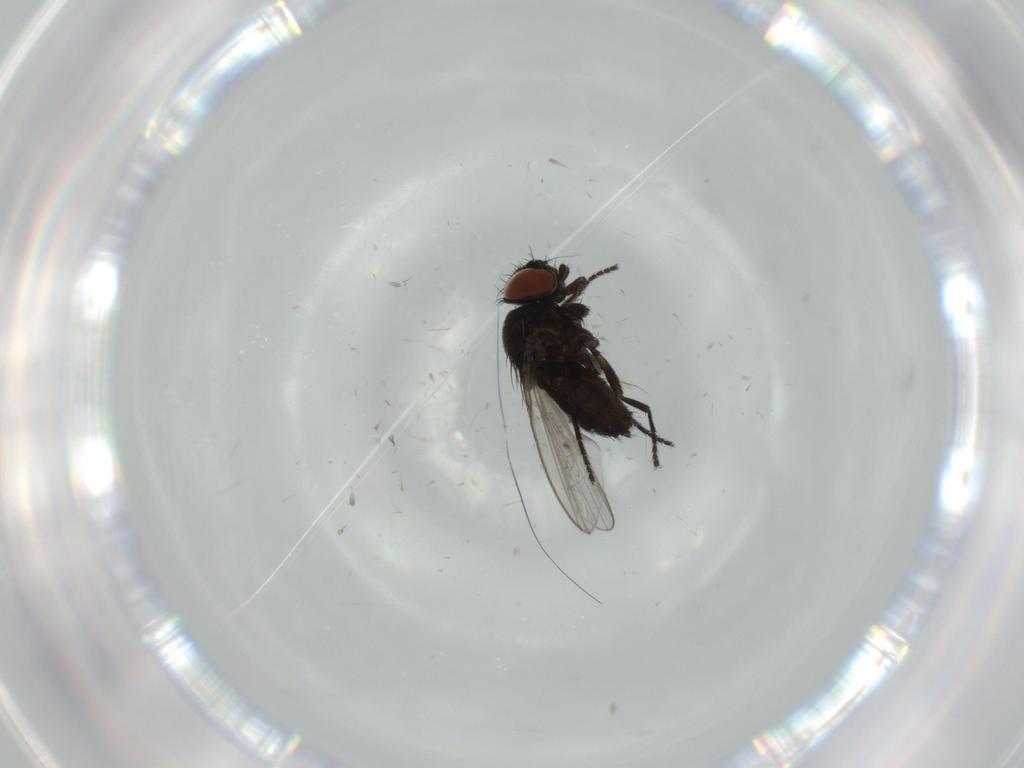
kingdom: Animalia
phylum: Arthropoda
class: Insecta
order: Diptera
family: Milichiidae
